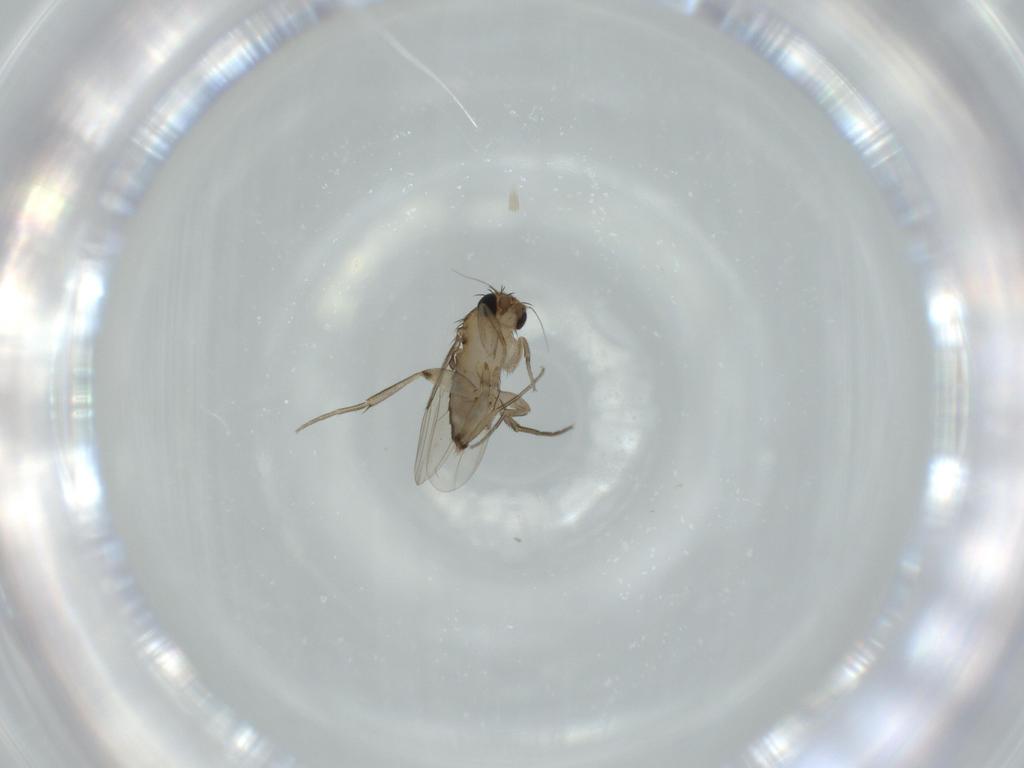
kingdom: Animalia
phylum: Arthropoda
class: Insecta
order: Diptera
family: Phoridae
